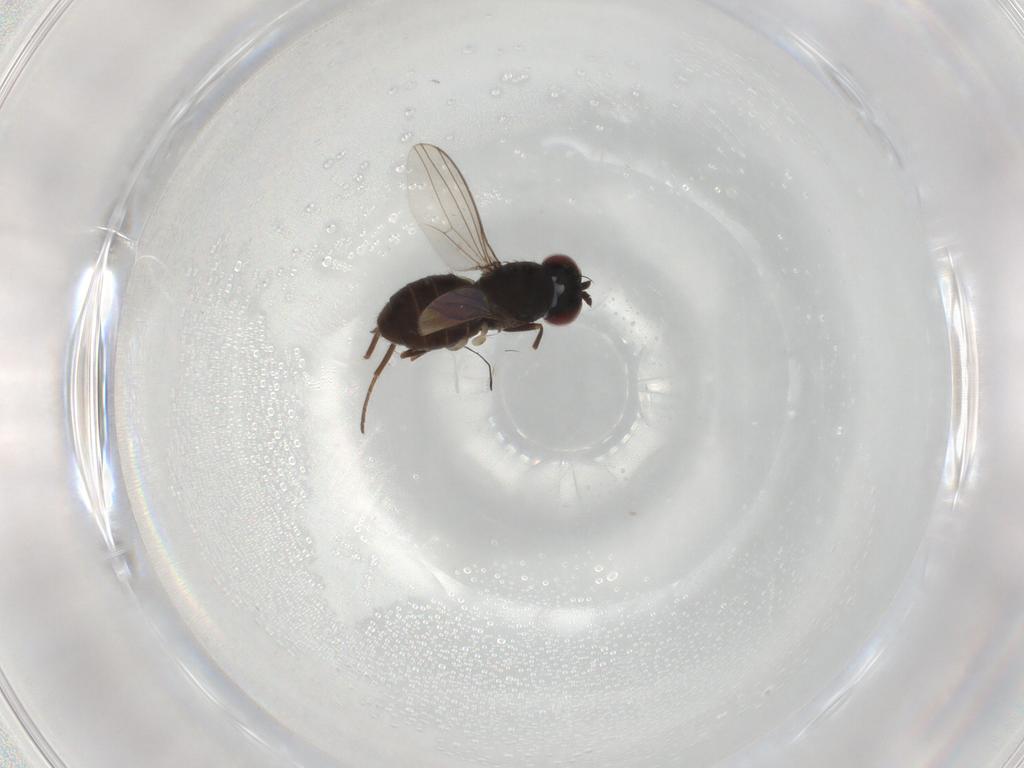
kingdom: Animalia
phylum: Arthropoda
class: Insecta
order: Diptera
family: Dolichopodidae
